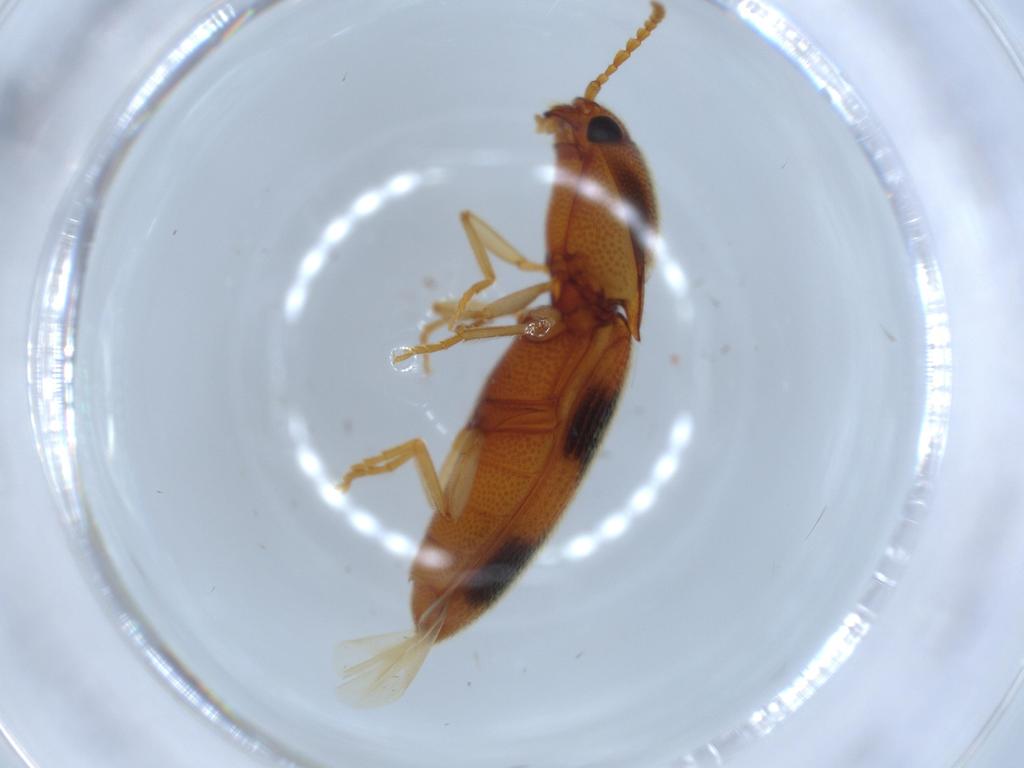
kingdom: Animalia
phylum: Arthropoda
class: Insecta
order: Coleoptera
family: Elateridae
